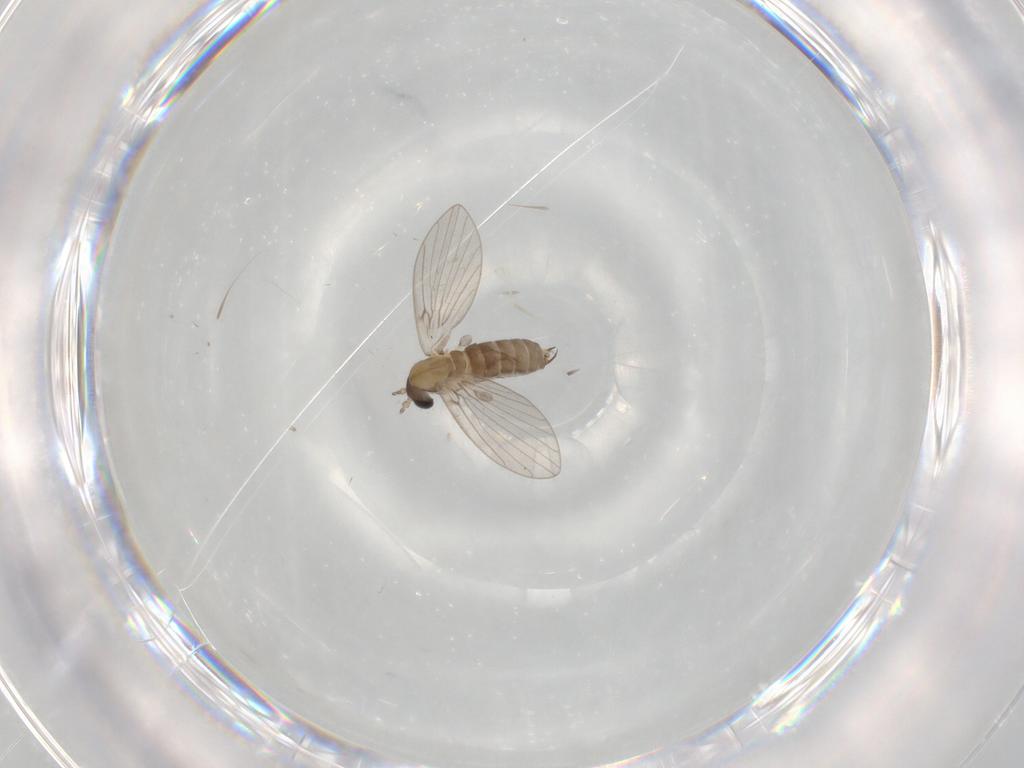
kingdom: Animalia
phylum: Arthropoda
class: Insecta
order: Diptera
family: Psychodidae
